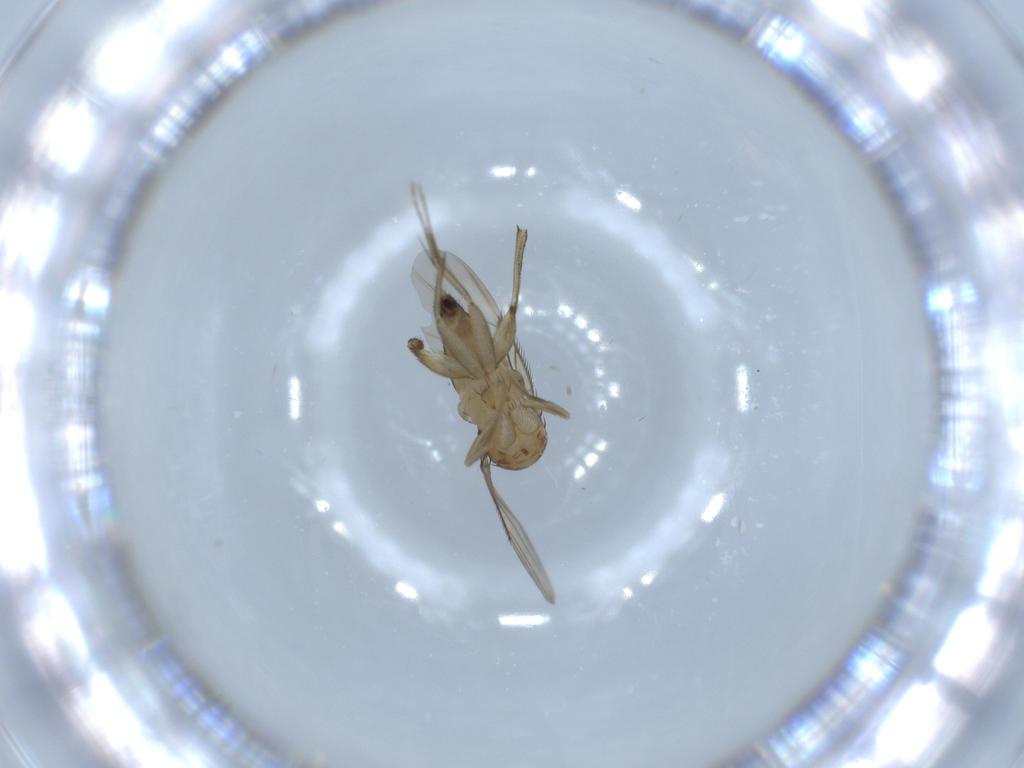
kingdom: Animalia
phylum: Arthropoda
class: Insecta
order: Diptera
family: Phoridae
